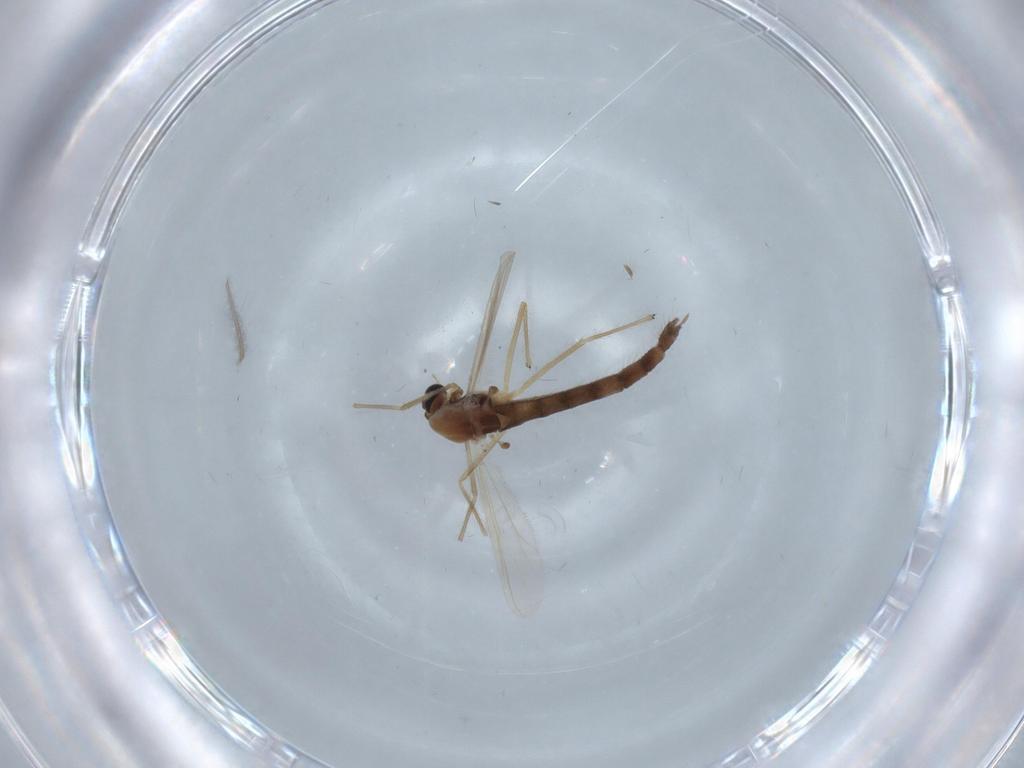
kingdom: Animalia
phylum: Arthropoda
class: Insecta
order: Diptera
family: Chironomidae
